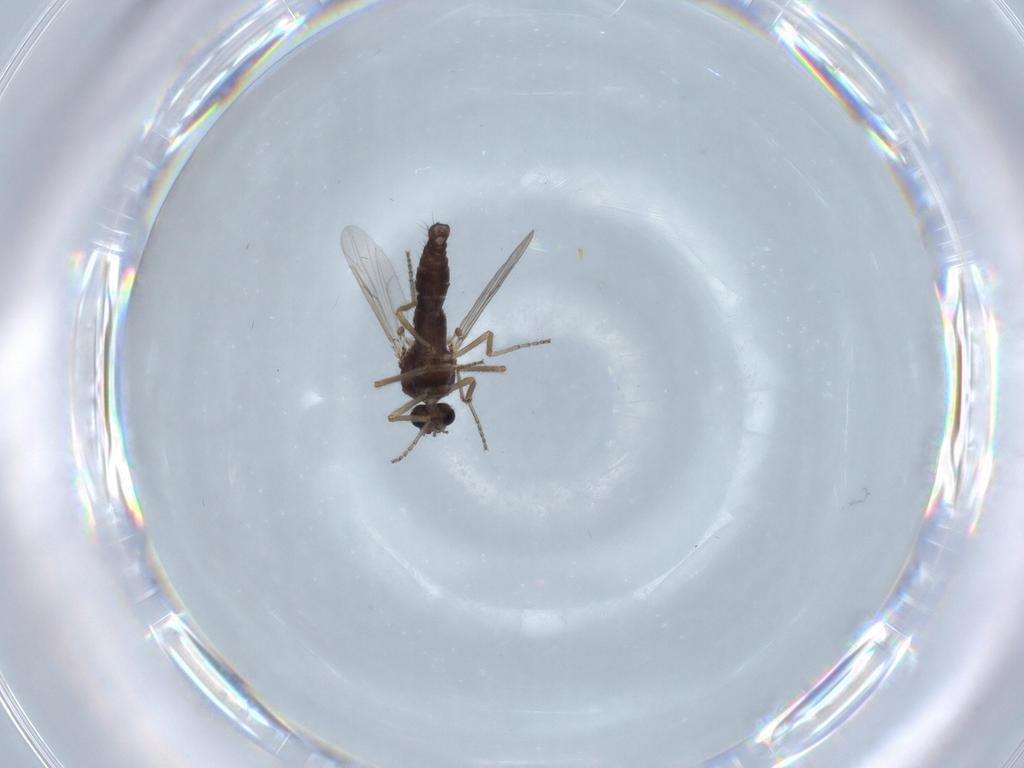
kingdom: Animalia
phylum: Arthropoda
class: Insecta
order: Diptera
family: Ceratopogonidae
